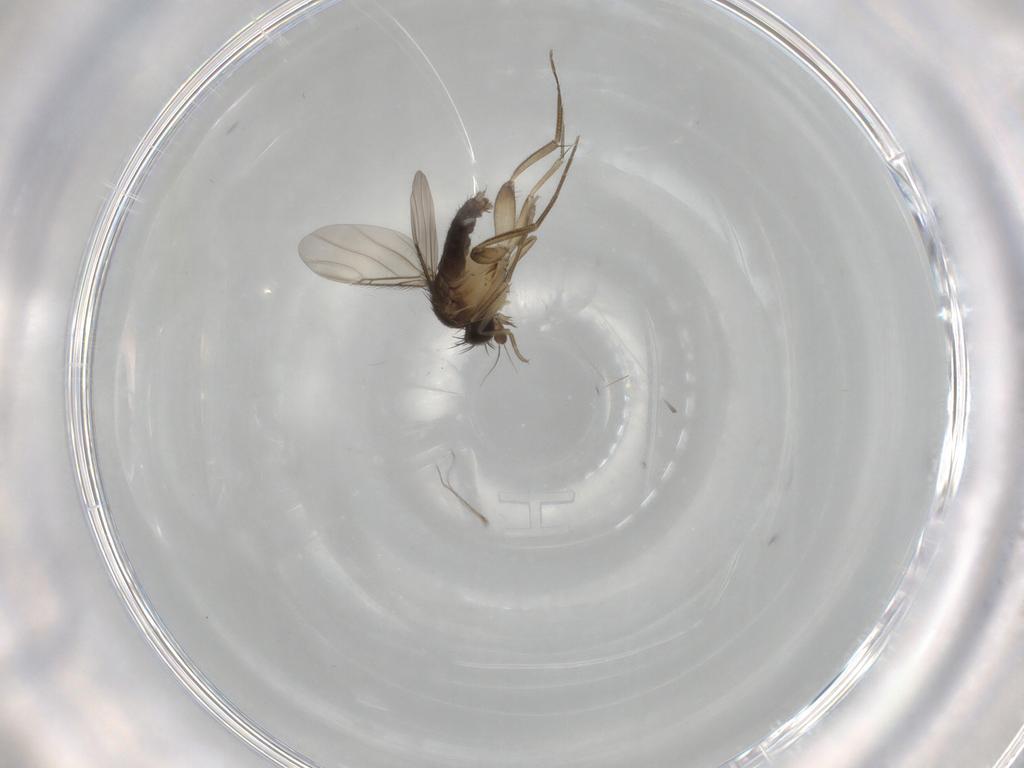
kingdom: Animalia
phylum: Arthropoda
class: Insecta
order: Diptera
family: Phoridae
